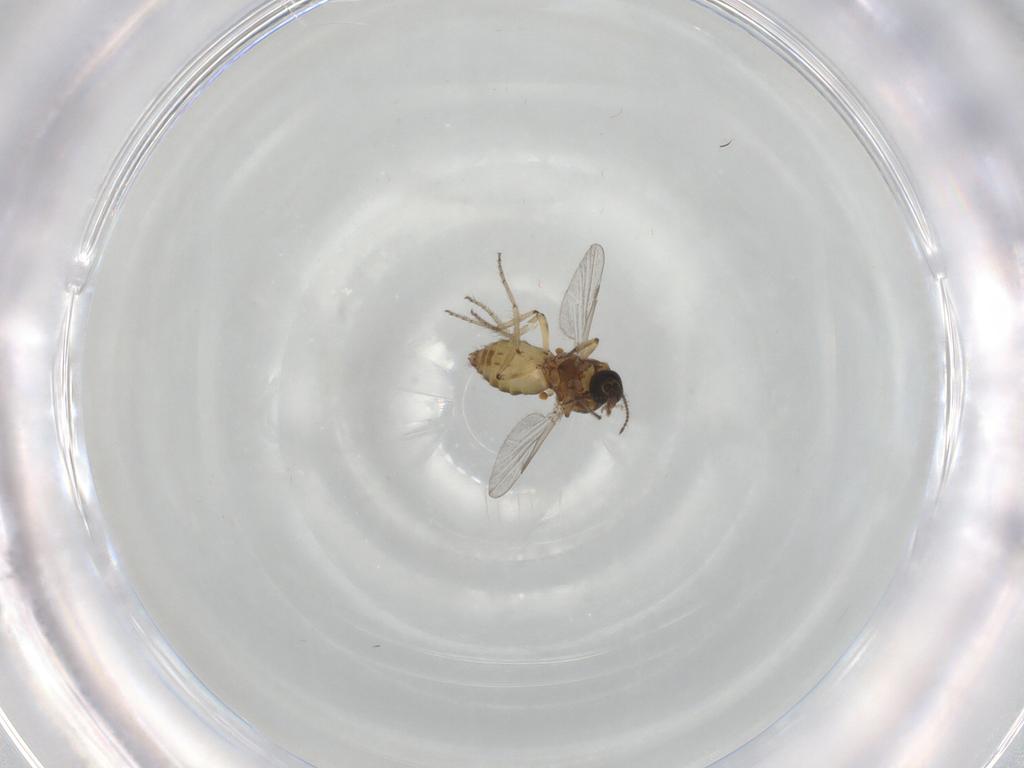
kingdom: Animalia
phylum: Arthropoda
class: Insecta
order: Diptera
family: Ceratopogonidae
